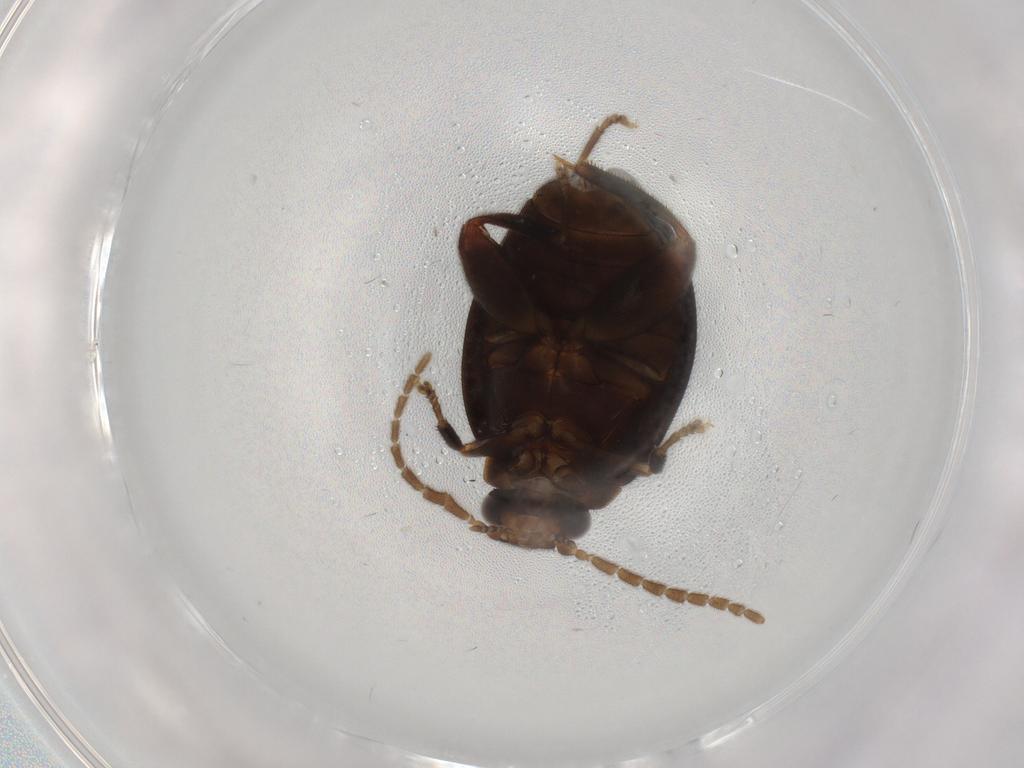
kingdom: Animalia
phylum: Arthropoda
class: Insecta
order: Coleoptera
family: Scirtidae
